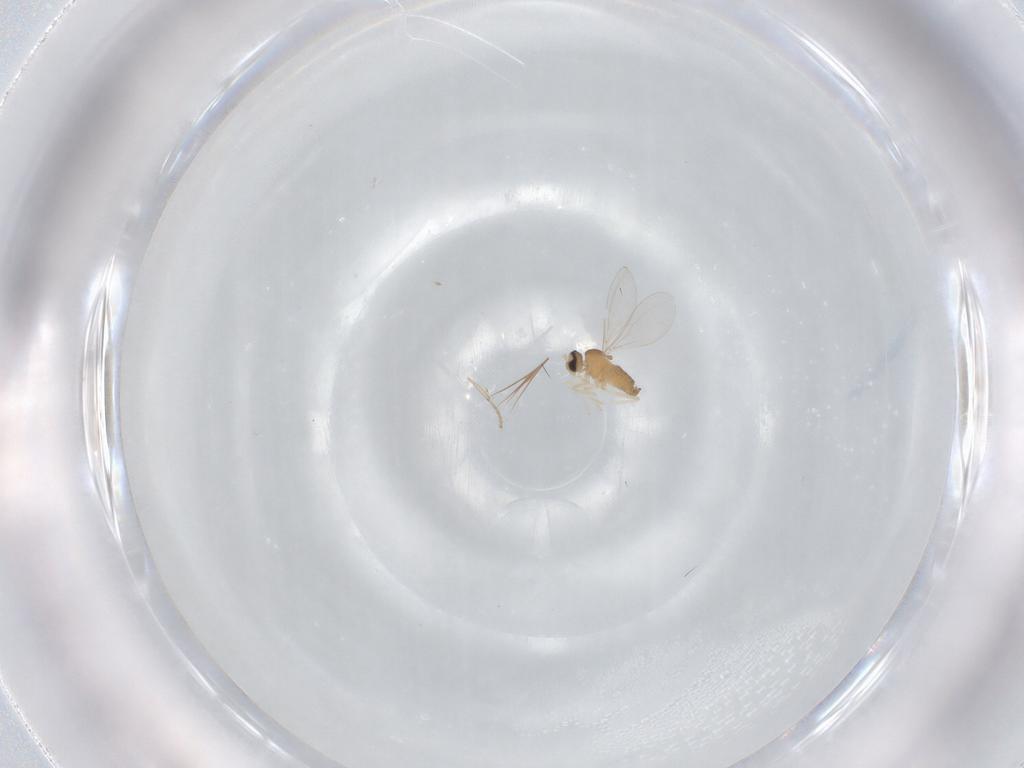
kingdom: Animalia
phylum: Arthropoda
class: Insecta
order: Diptera
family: Cecidomyiidae
